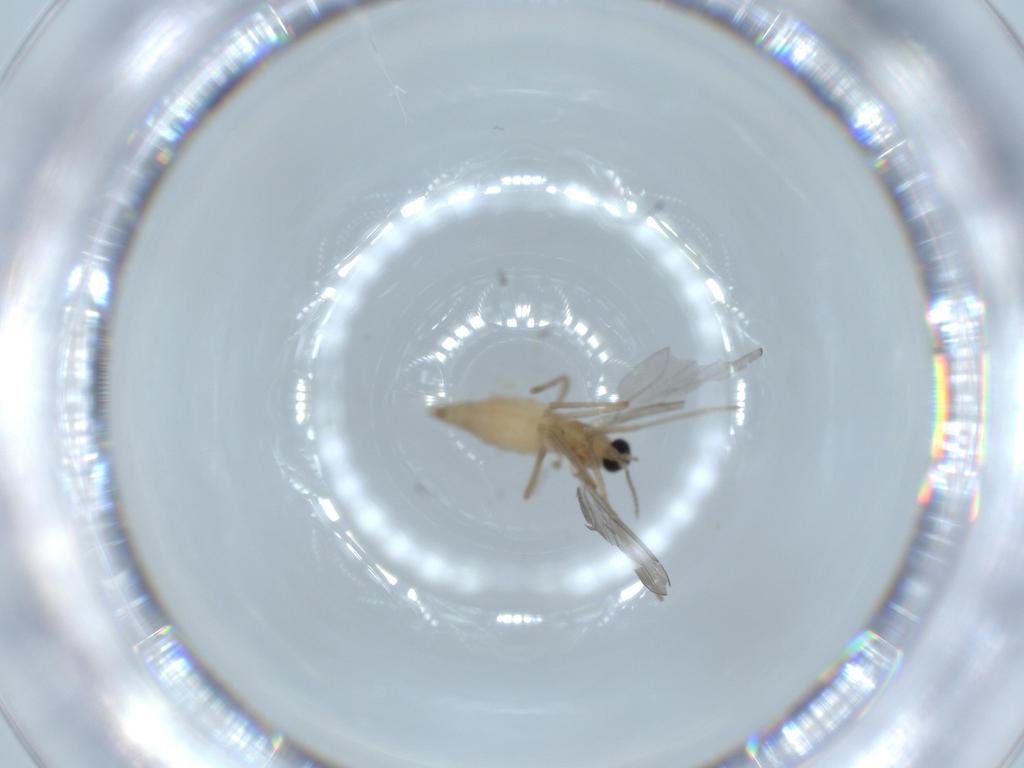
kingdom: Animalia
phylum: Arthropoda
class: Insecta
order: Diptera
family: Cecidomyiidae
